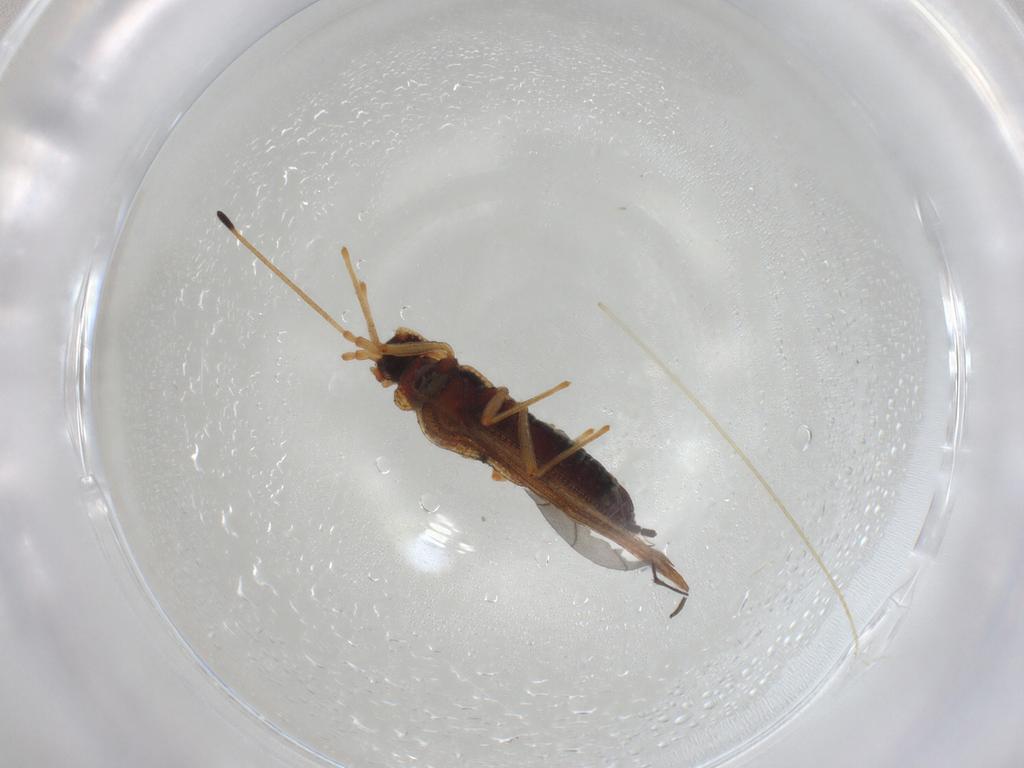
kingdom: Animalia
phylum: Arthropoda
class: Insecta
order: Hemiptera
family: Tingidae
